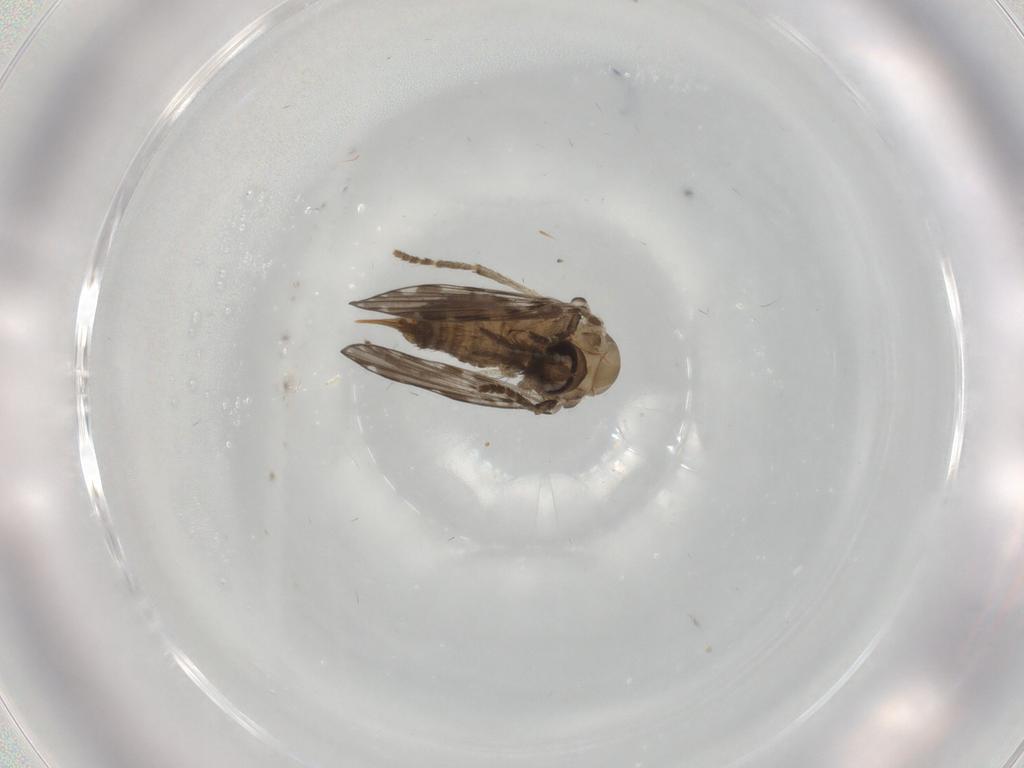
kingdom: Animalia
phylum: Arthropoda
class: Insecta
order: Diptera
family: Psychodidae
